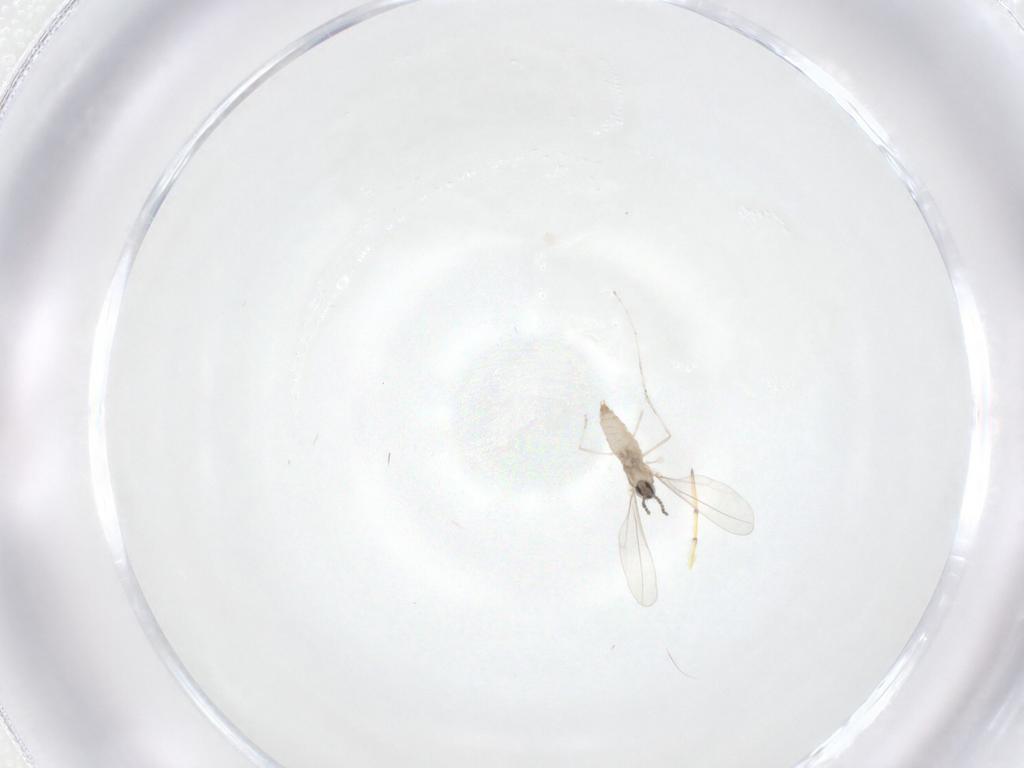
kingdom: Animalia
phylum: Arthropoda
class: Insecta
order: Diptera
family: Cecidomyiidae
